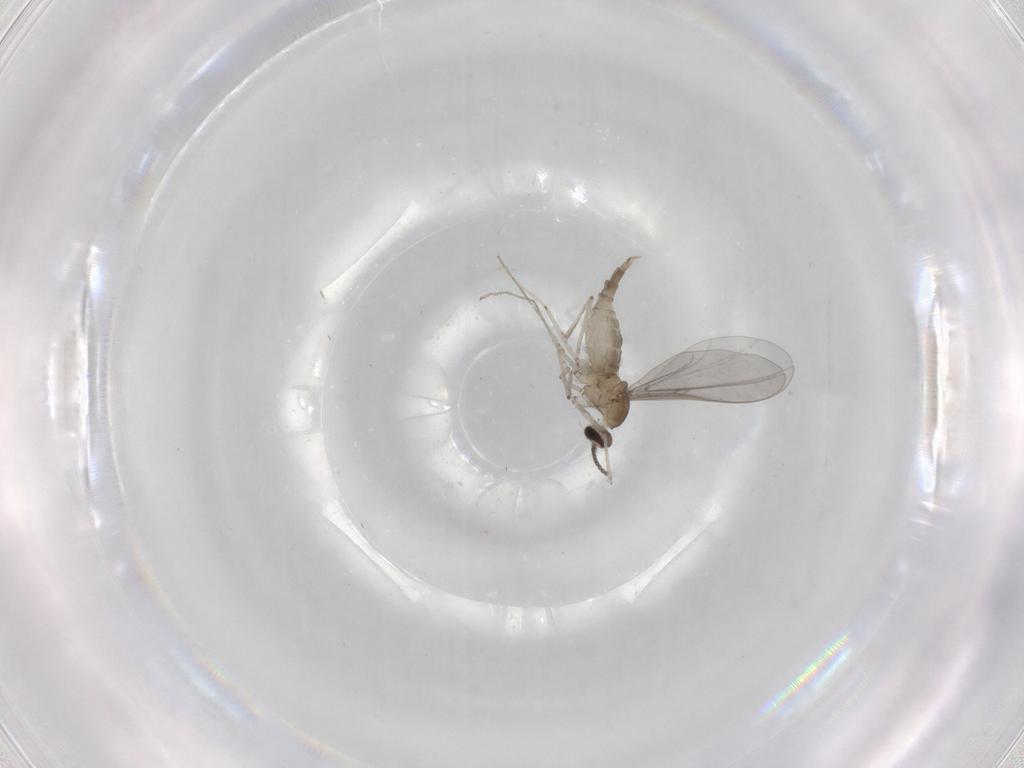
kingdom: Animalia
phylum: Arthropoda
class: Insecta
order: Diptera
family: Cecidomyiidae
